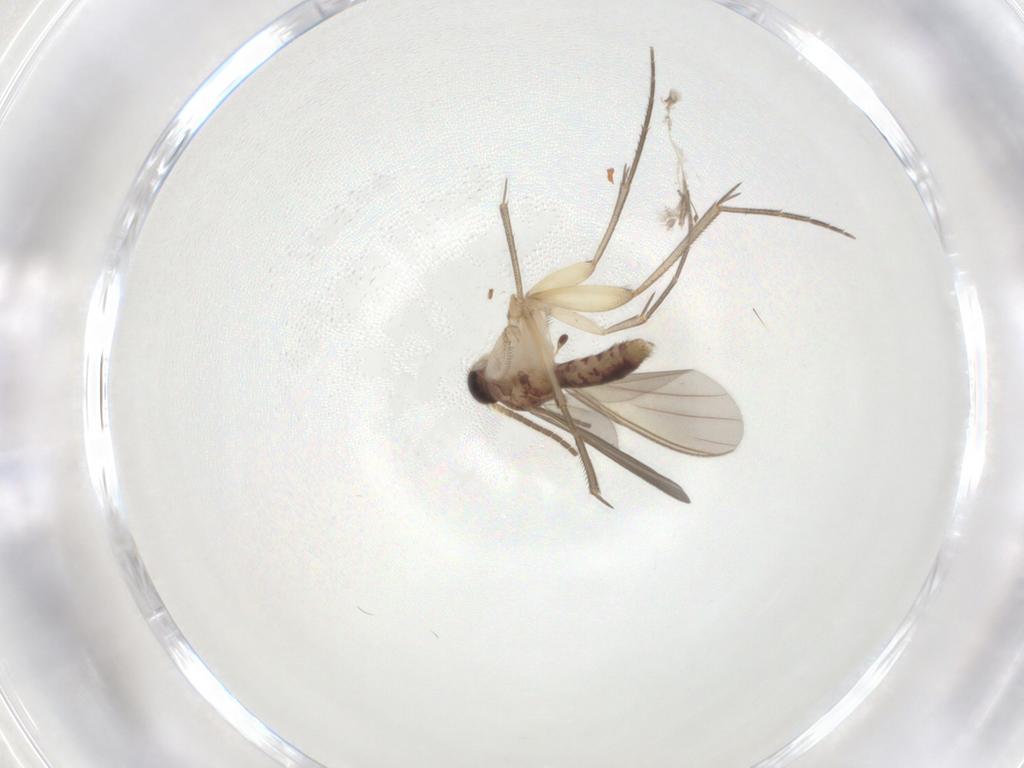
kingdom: Animalia
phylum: Arthropoda
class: Insecta
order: Diptera
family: Mycetophilidae
